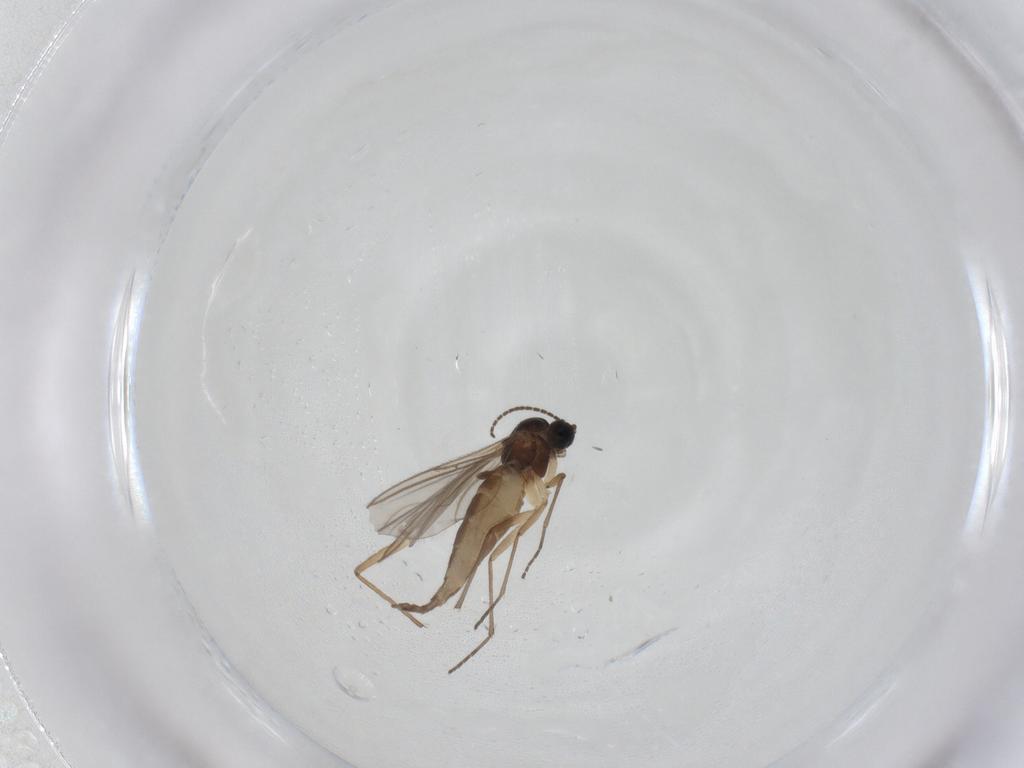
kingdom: Animalia
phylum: Arthropoda
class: Insecta
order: Diptera
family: Sciaridae
